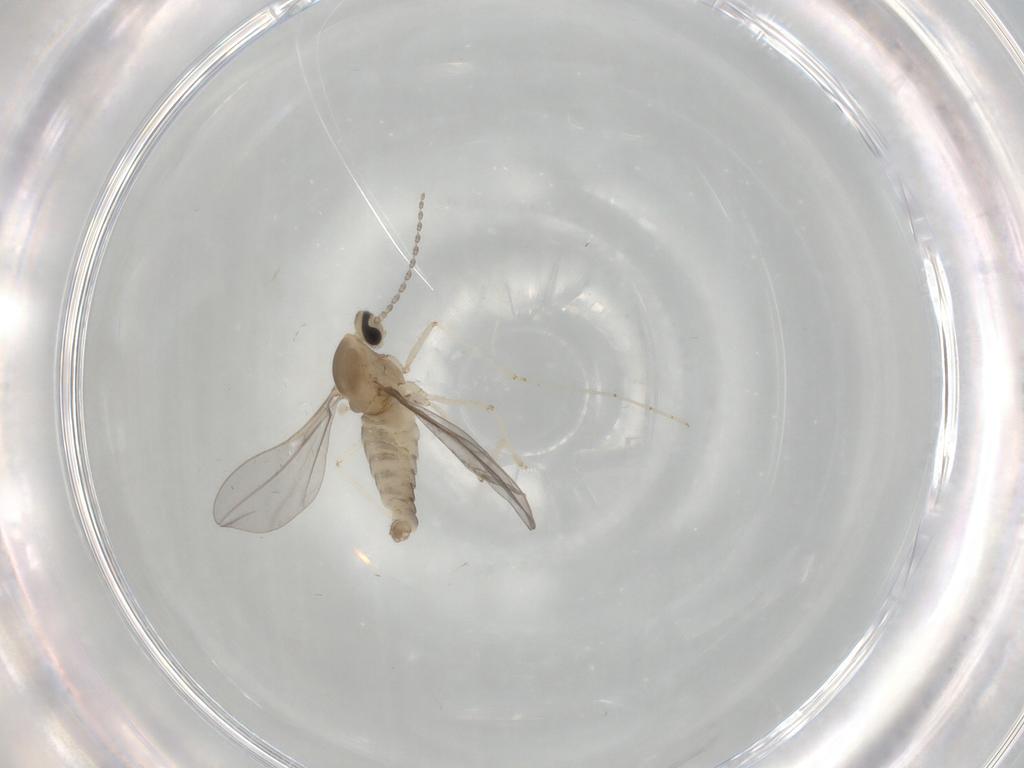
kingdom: Animalia
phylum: Arthropoda
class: Insecta
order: Diptera
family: Cecidomyiidae
